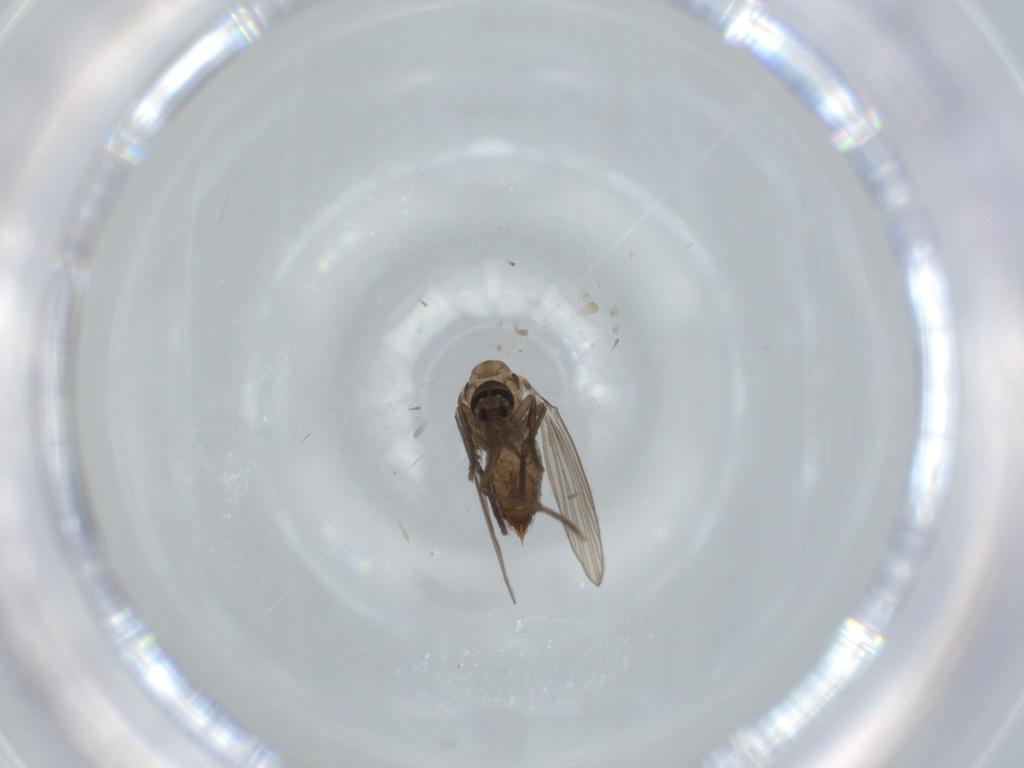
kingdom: Animalia
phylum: Arthropoda
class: Insecta
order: Diptera
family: Psychodidae
